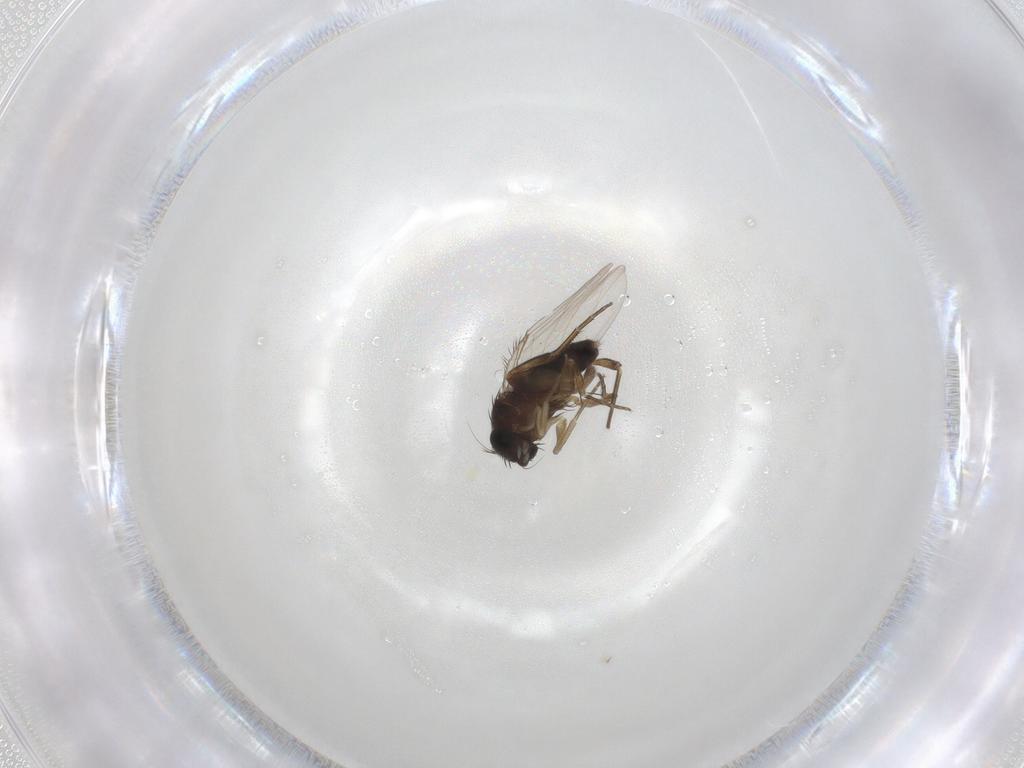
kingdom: Animalia
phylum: Arthropoda
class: Insecta
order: Diptera
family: Phoridae
